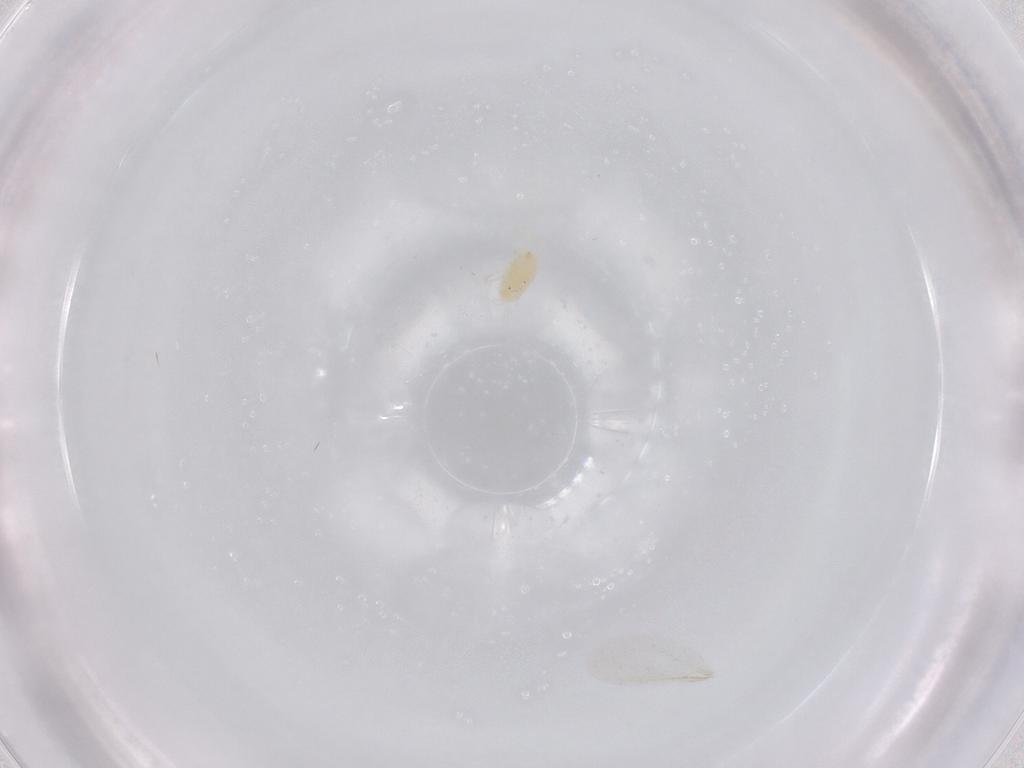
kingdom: Animalia
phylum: Arthropoda
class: Arachnida
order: Trombidiformes
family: Tetranychidae
